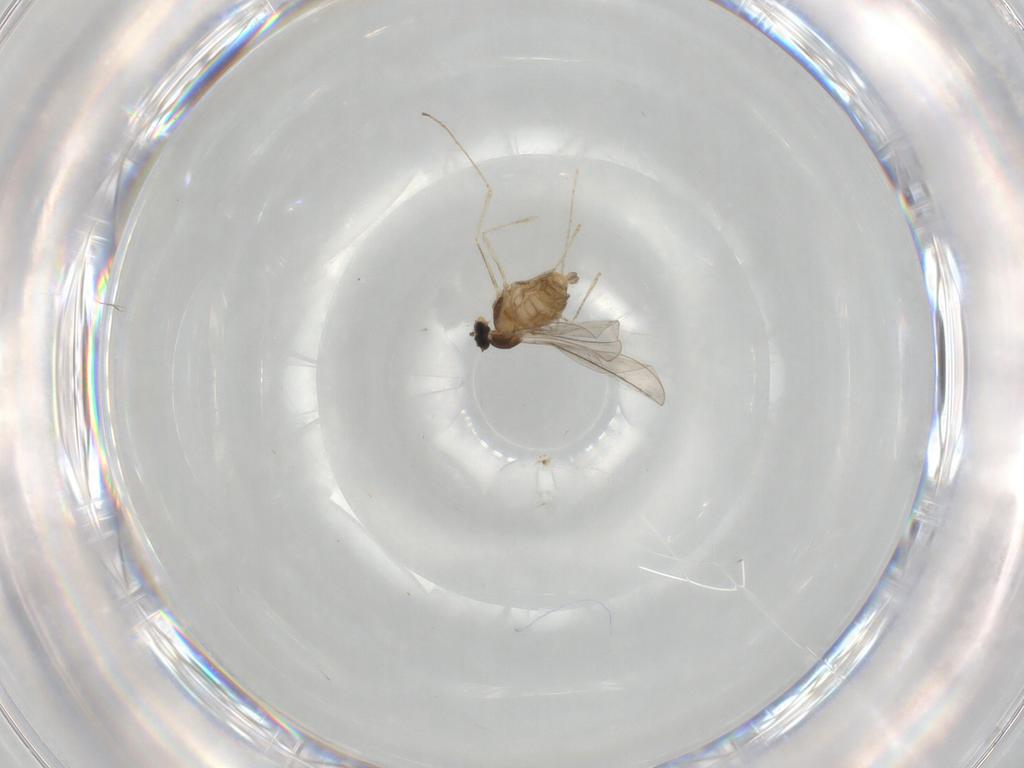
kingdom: Animalia
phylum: Arthropoda
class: Insecta
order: Diptera
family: Cecidomyiidae
